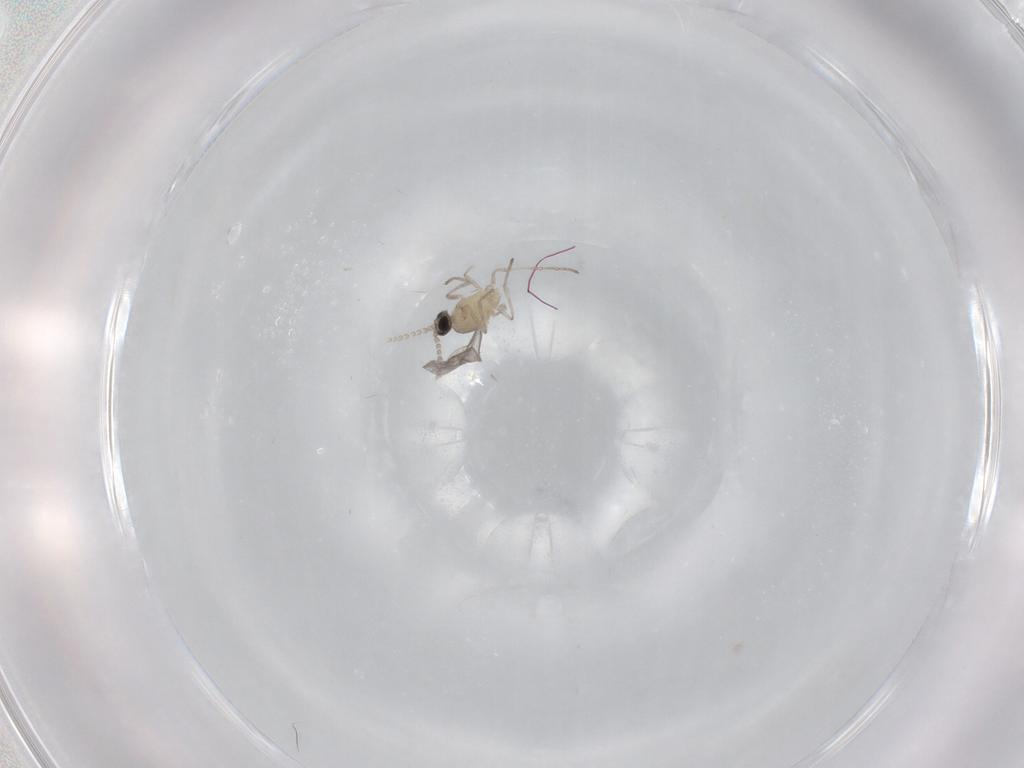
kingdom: Animalia
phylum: Arthropoda
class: Insecta
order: Diptera
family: Cecidomyiidae
